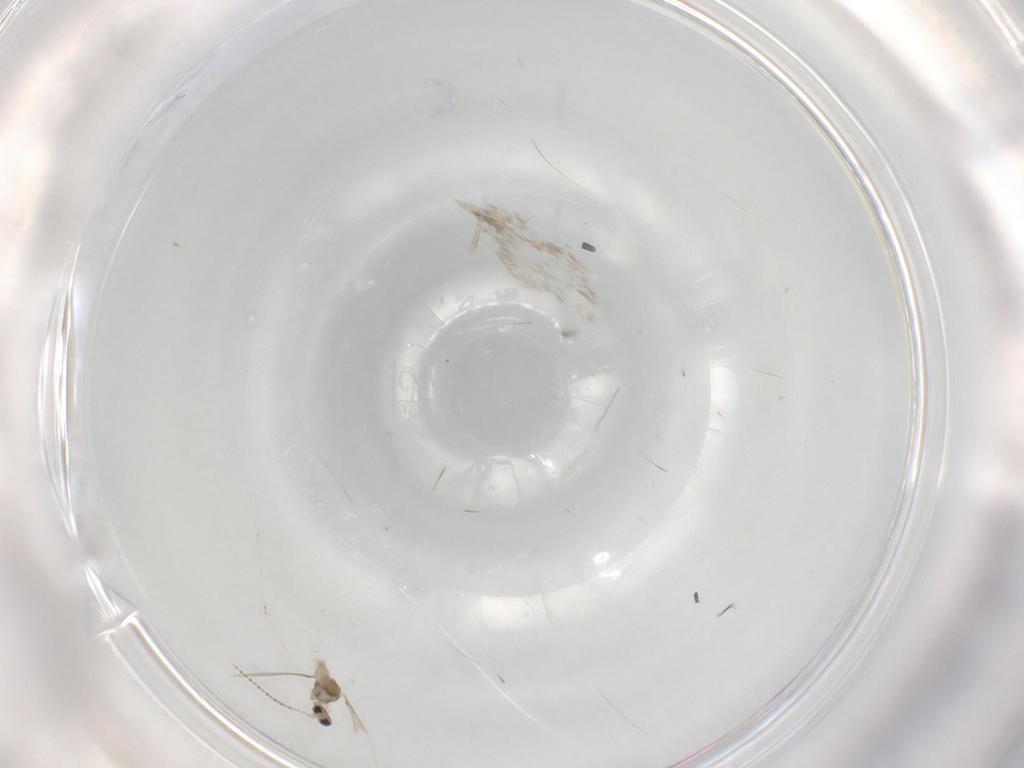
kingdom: Animalia
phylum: Arthropoda
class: Insecta
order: Diptera
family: Cecidomyiidae
